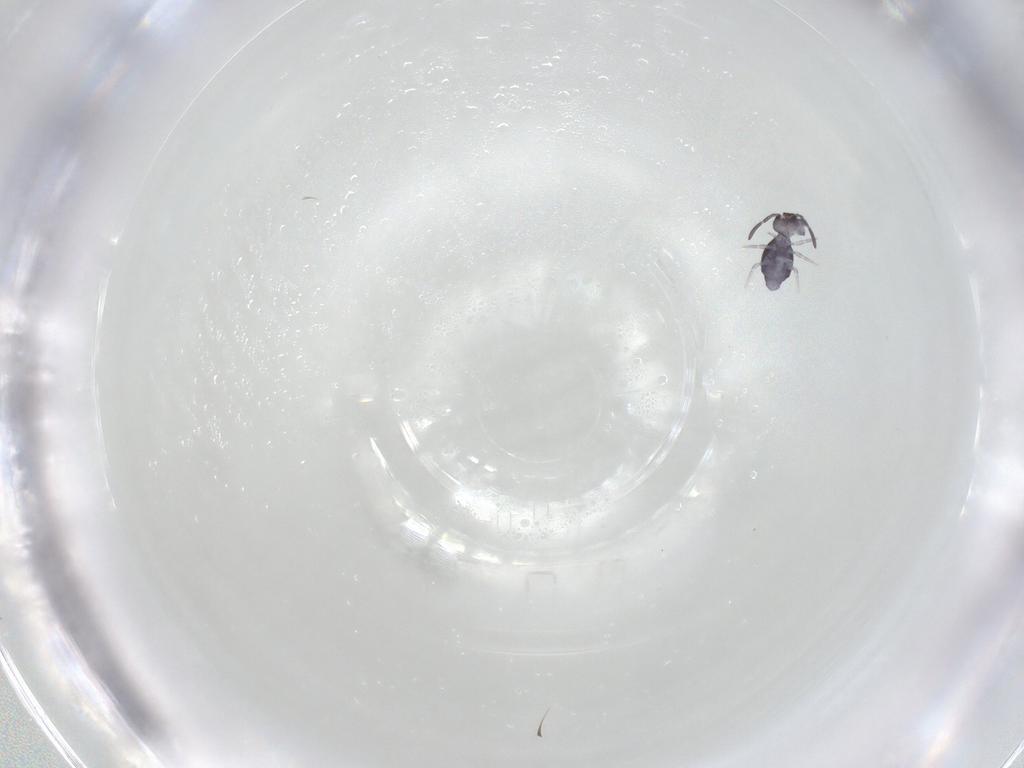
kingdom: Animalia
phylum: Arthropoda
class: Collembola
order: Symphypleona
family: Katiannidae
